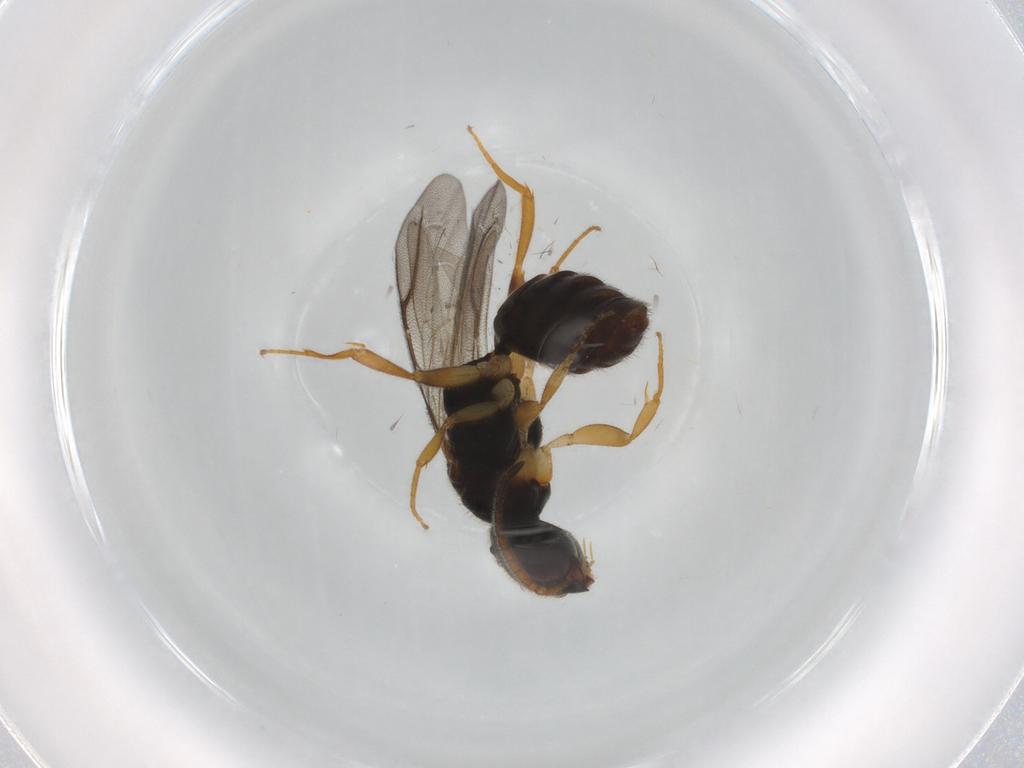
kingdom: Animalia
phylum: Arthropoda
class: Insecta
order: Hymenoptera
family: Bethylidae
